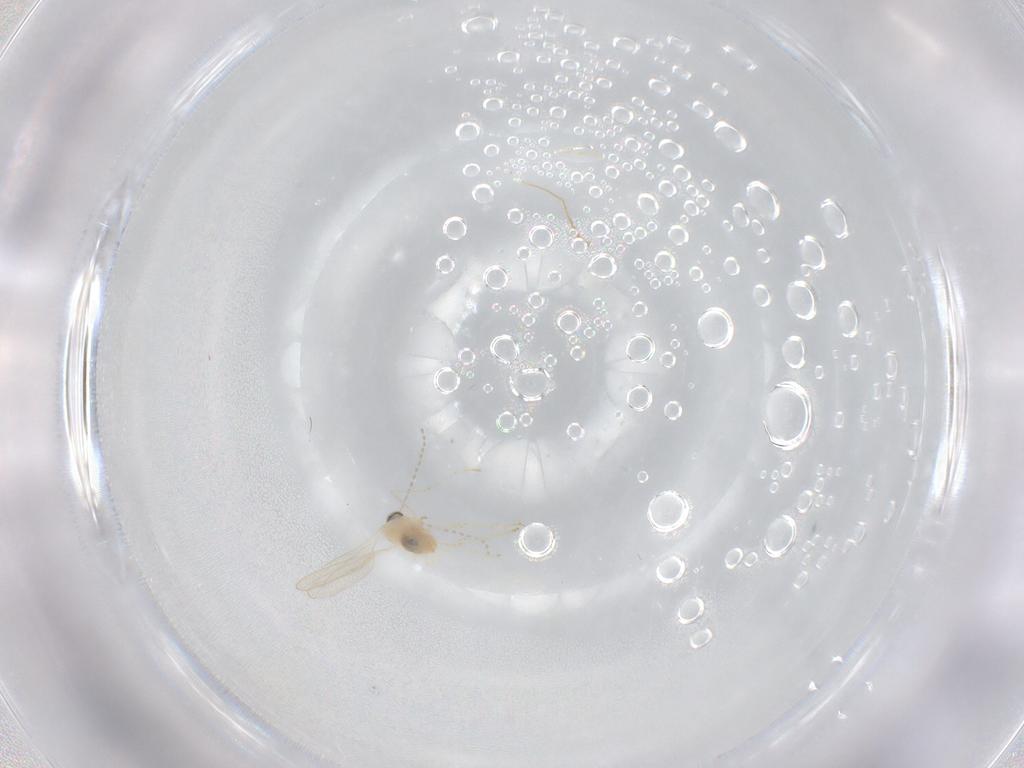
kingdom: Animalia
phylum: Arthropoda
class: Insecta
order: Diptera
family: Cecidomyiidae
